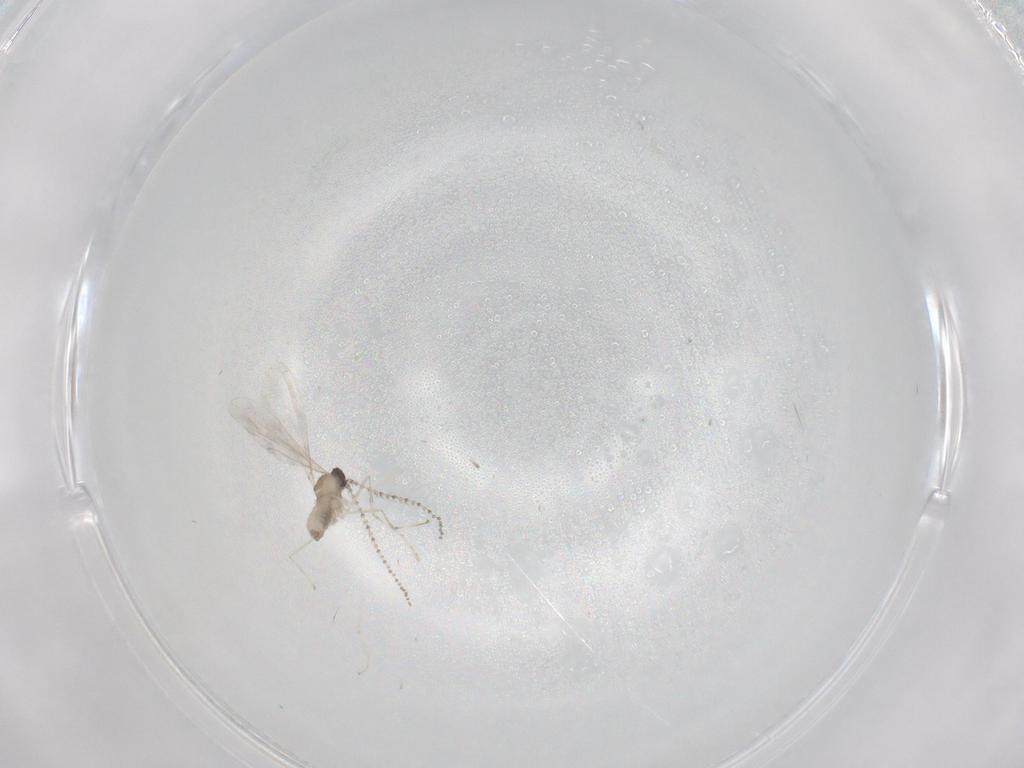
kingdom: Animalia
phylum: Arthropoda
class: Insecta
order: Diptera
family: Cecidomyiidae
